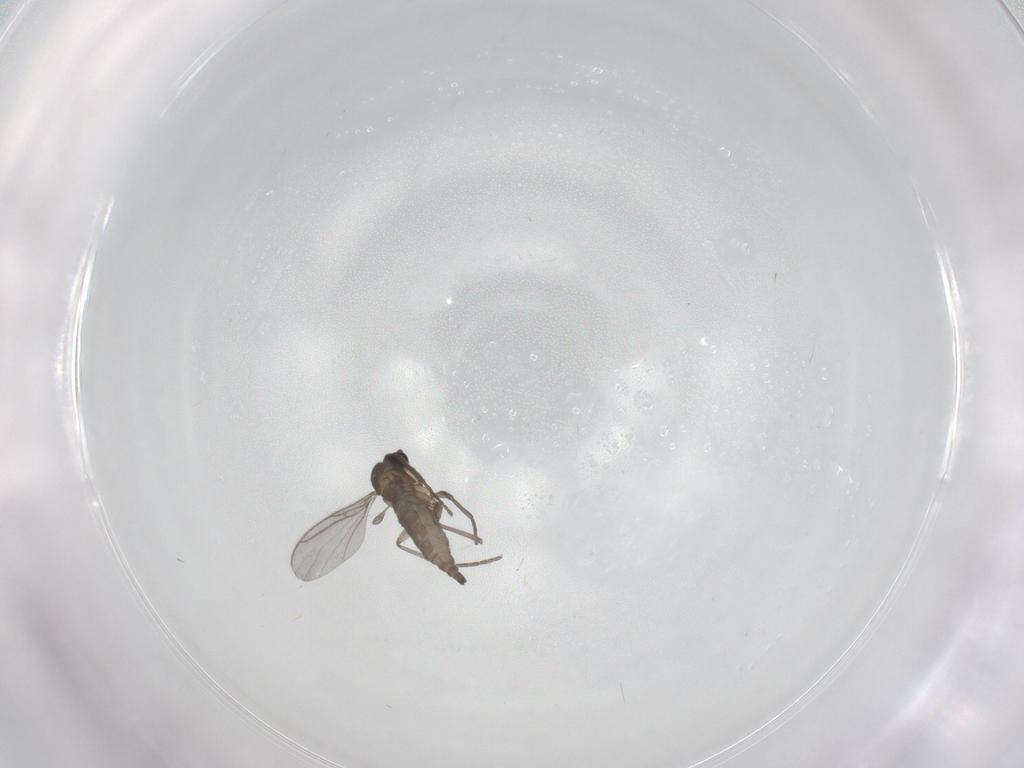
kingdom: Animalia
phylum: Arthropoda
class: Insecta
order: Diptera
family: Sciaridae
